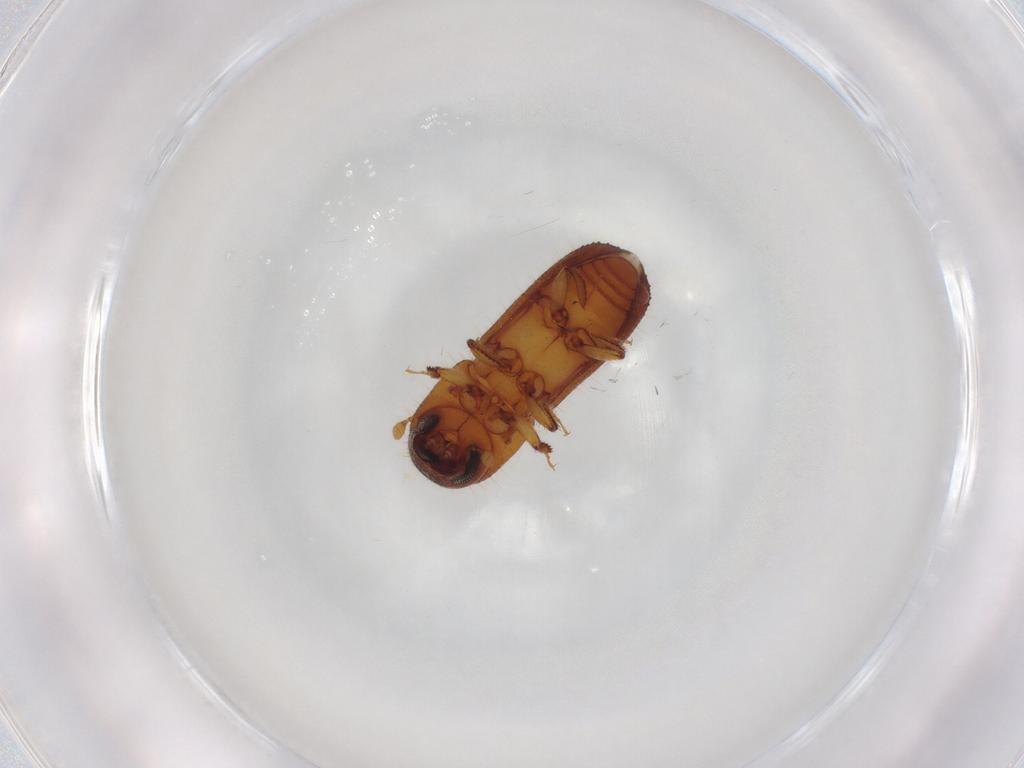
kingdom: Animalia
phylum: Arthropoda
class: Insecta
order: Coleoptera
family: Curculionidae
